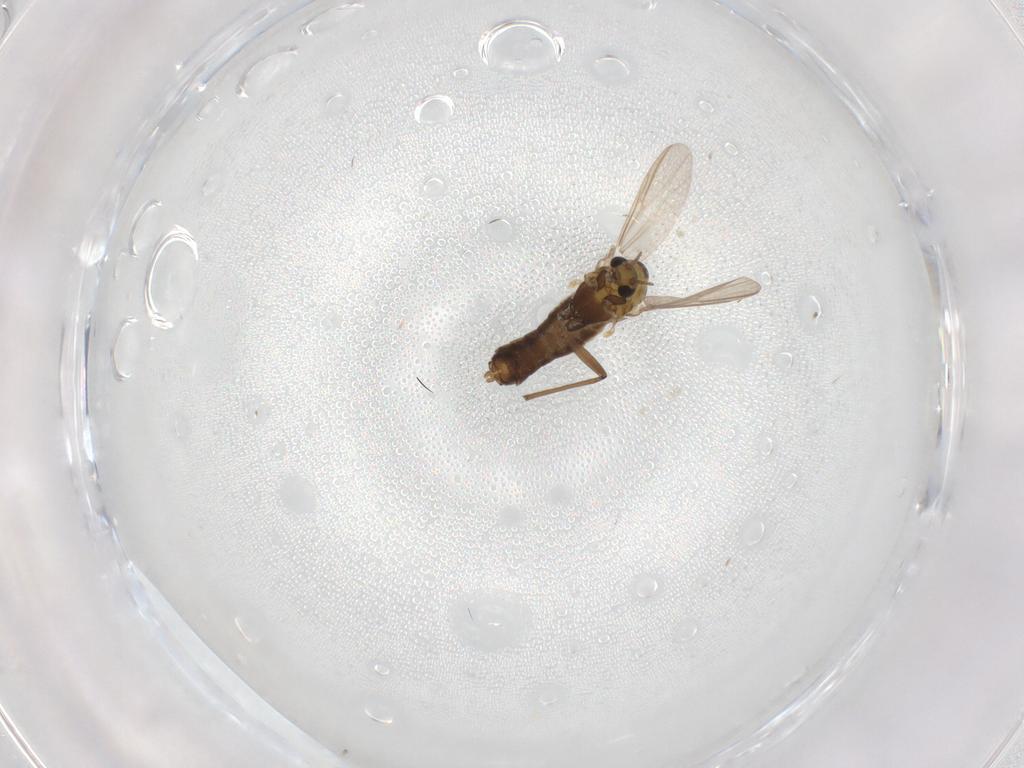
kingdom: Animalia
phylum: Arthropoda
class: Insecta
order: Diptera
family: Chironomidae
